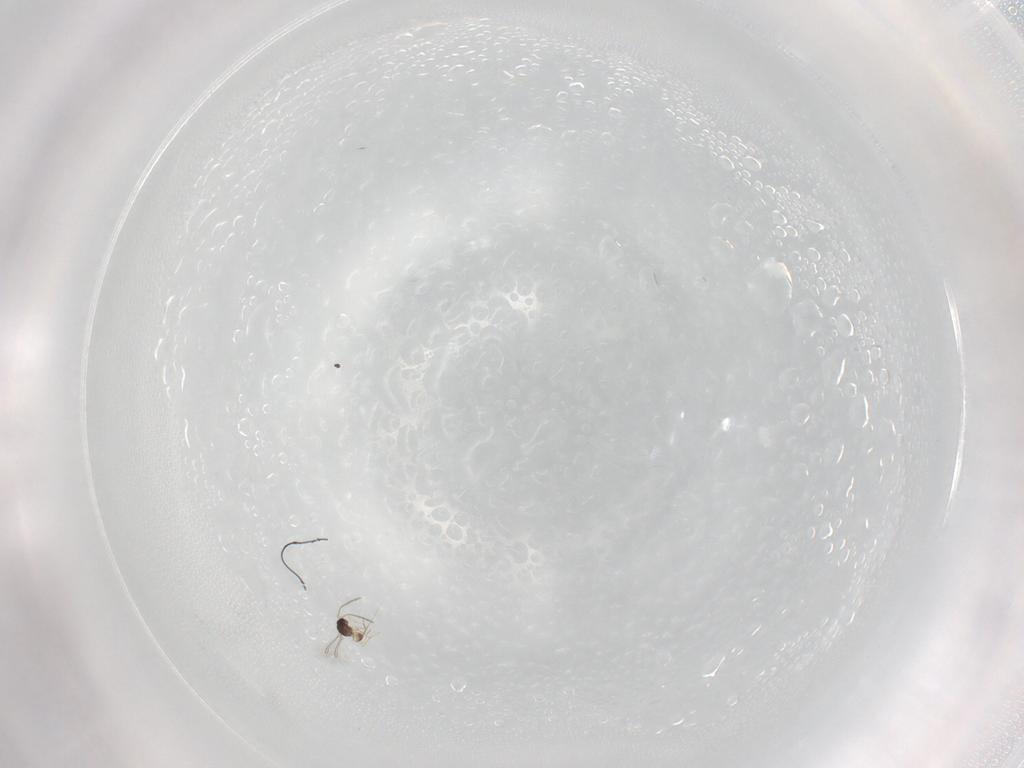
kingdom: Animalia
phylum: Arthropoda
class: Insecta
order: Hymenoptera
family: Mymaridae
